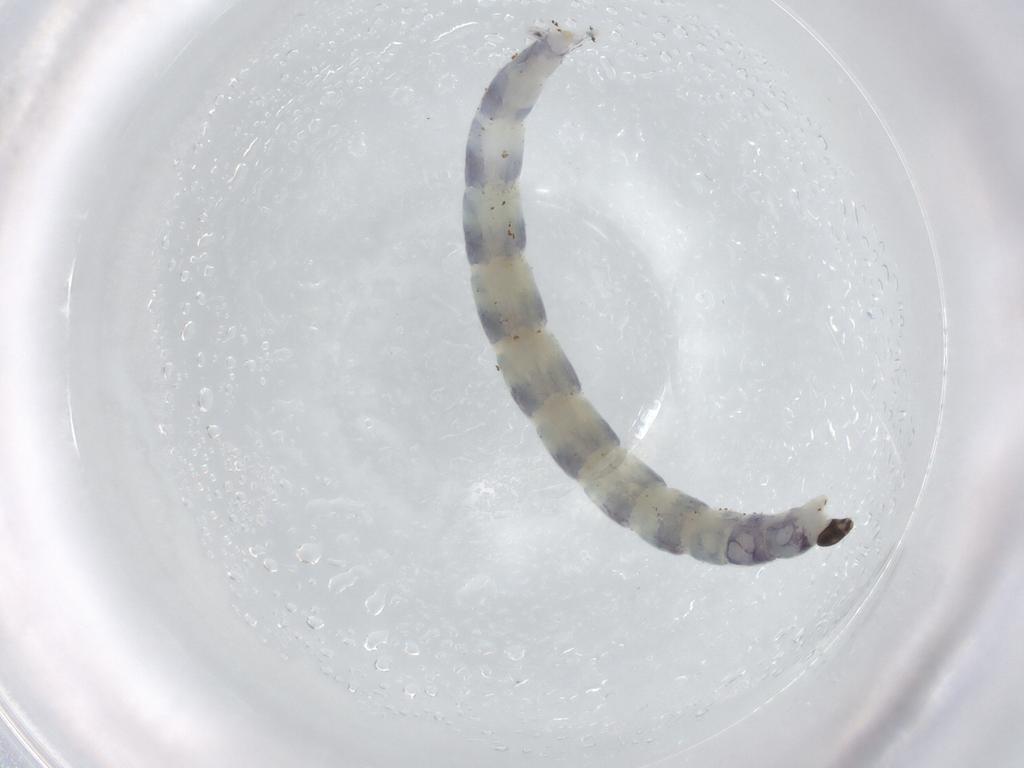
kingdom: Animalia
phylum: Arthropoda
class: Insecta
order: Diptera
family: Chironomidae
